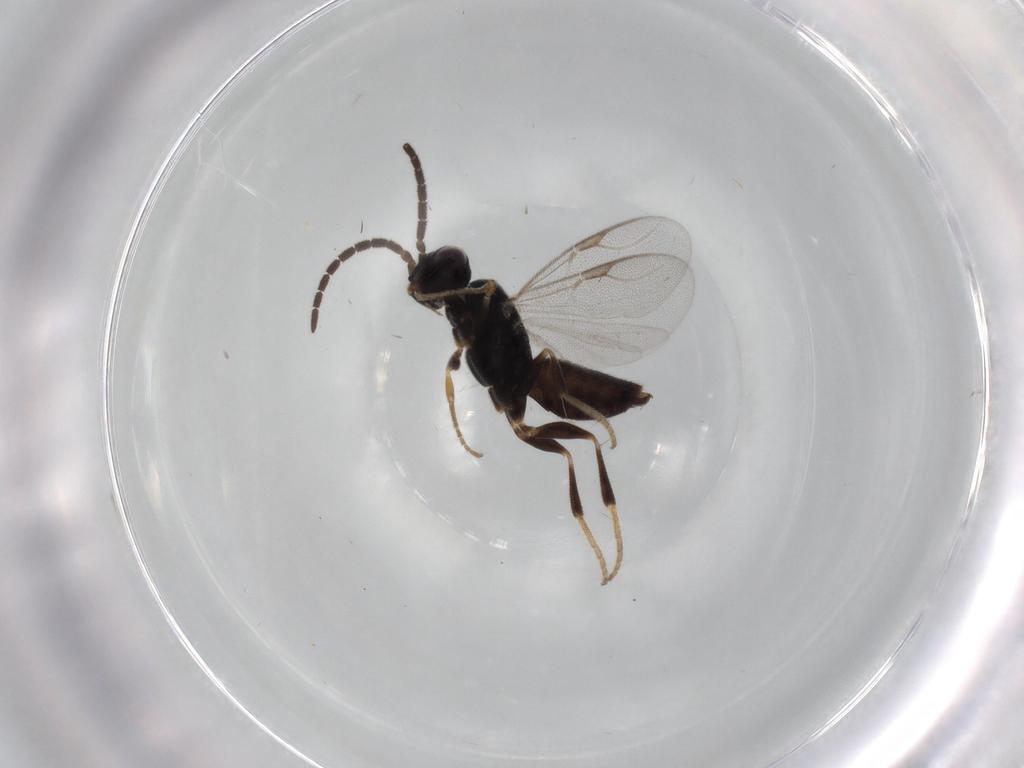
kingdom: Animalia
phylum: Arthropoda
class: Insecta
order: Hymenoptera
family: Dryinidae
